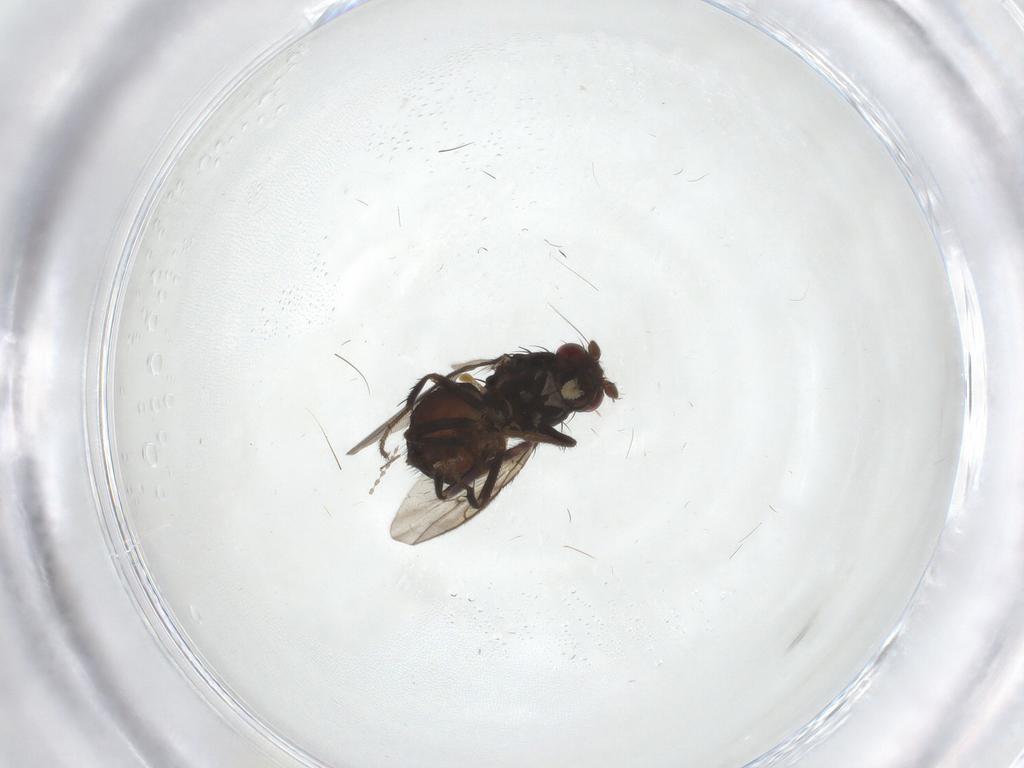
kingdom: Animalia
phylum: Arthropoda
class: Insecta
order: Diptera
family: Sphaeroceridae
